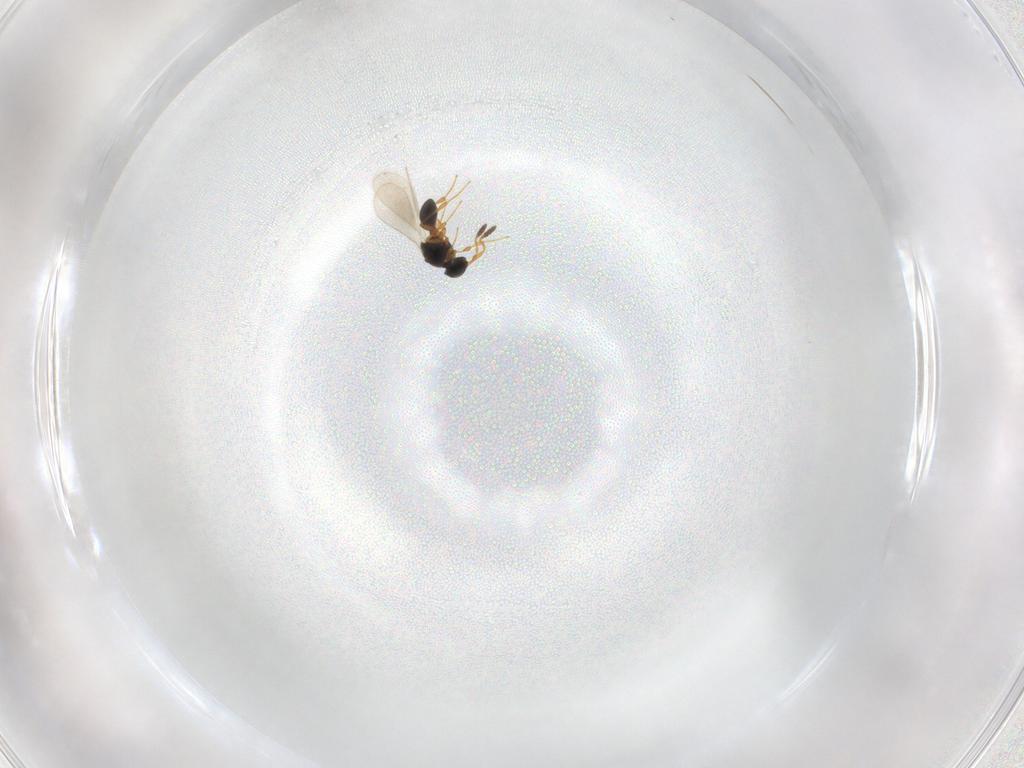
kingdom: Animalia
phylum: Arthropoda
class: Insecta
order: Hymenoptera
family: Platygastridae
